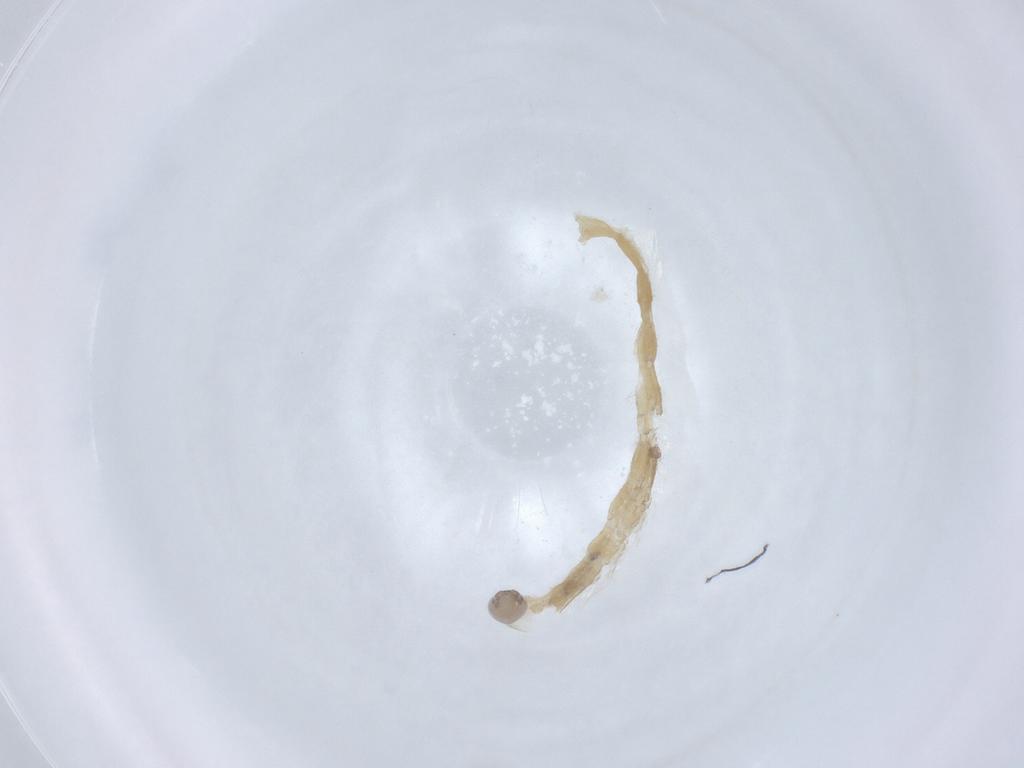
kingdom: Animalia
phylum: Arthropoda
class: Insecta
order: Diptera
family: Chironomidae
